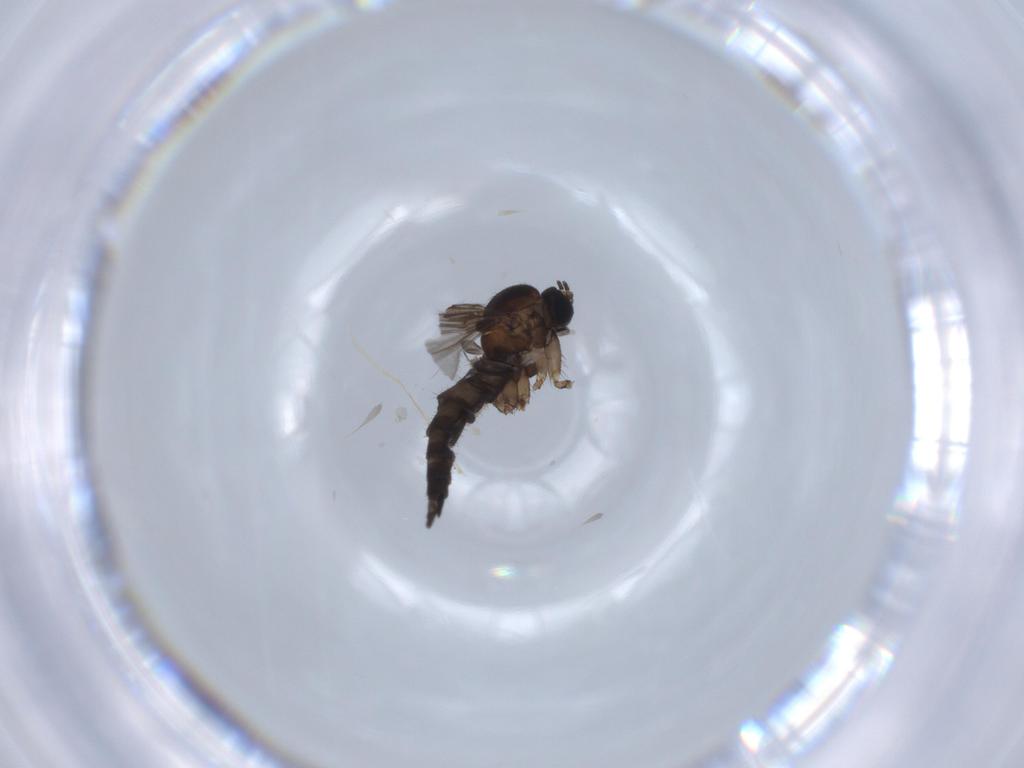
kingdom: Animalia
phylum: Arthropoda
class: Insecta
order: Diptera
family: Sciaridae
